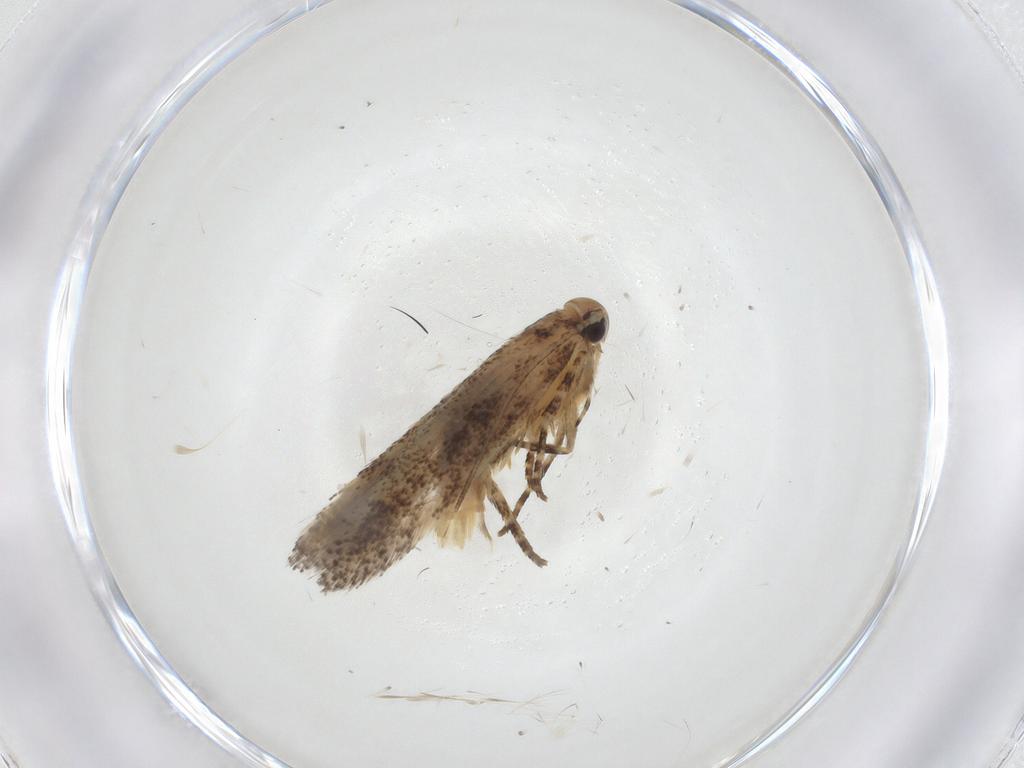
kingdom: Animalia
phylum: Arthropoda
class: Insecta
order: Lepidoptera
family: Gelechiidae
